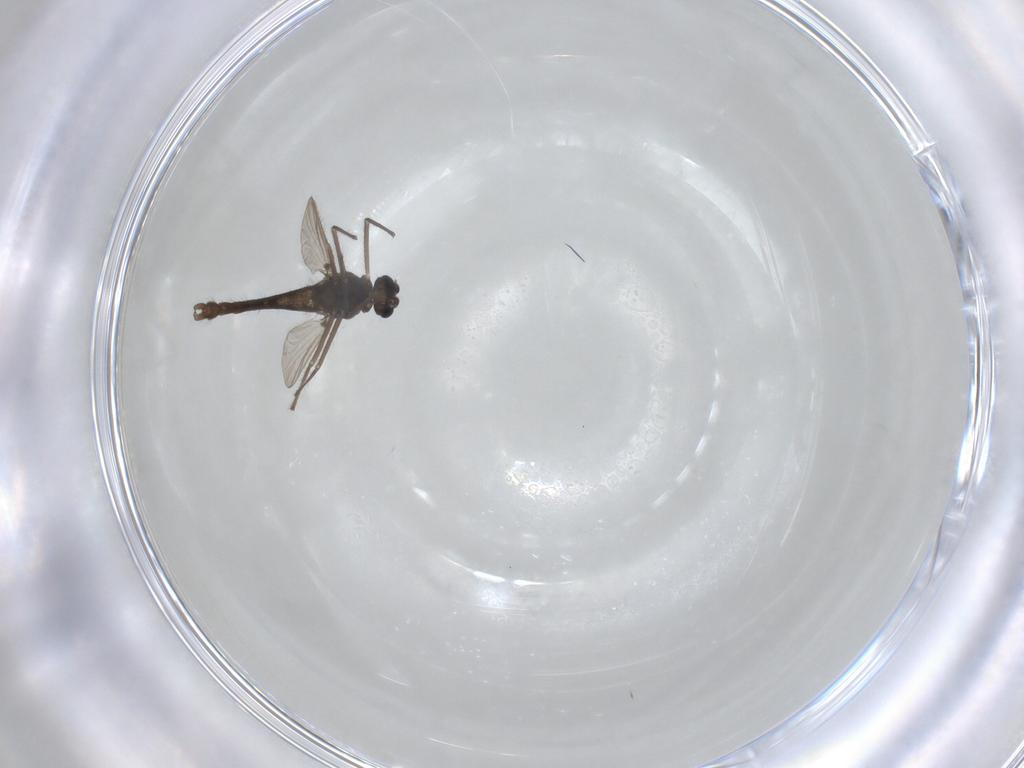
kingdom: Animalia
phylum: Arthropoda
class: Insecta
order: Diptera
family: Chironomidae
